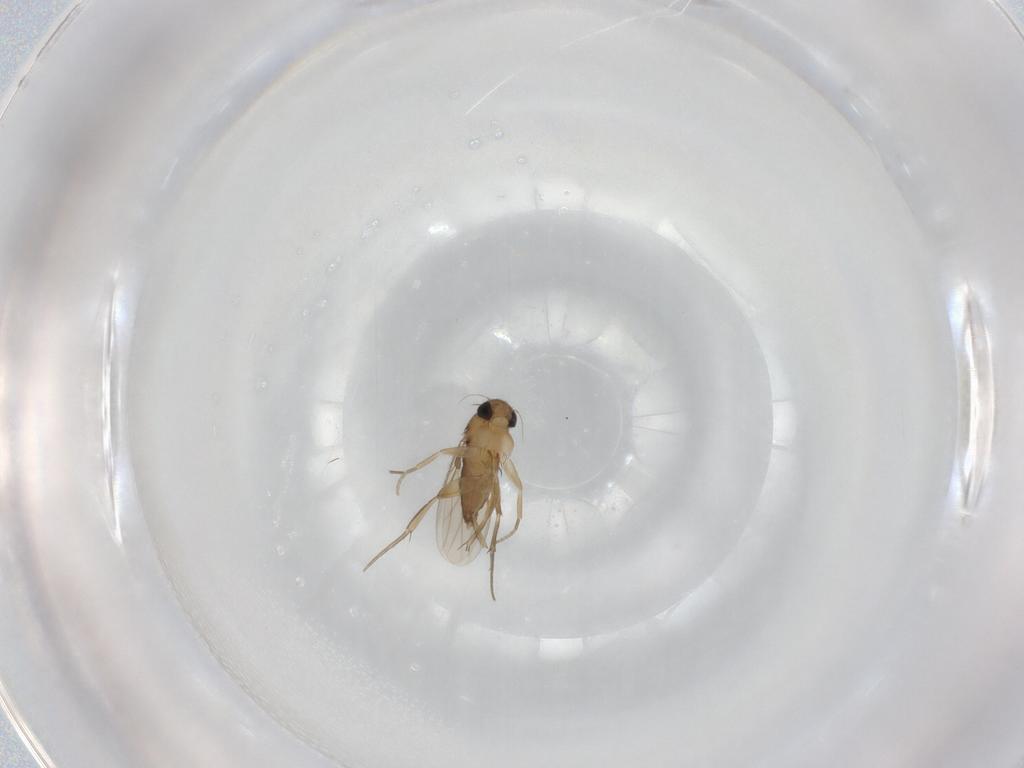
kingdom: Animalia
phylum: Arthropoda
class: Insecta
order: Diptera
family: Phoridae
